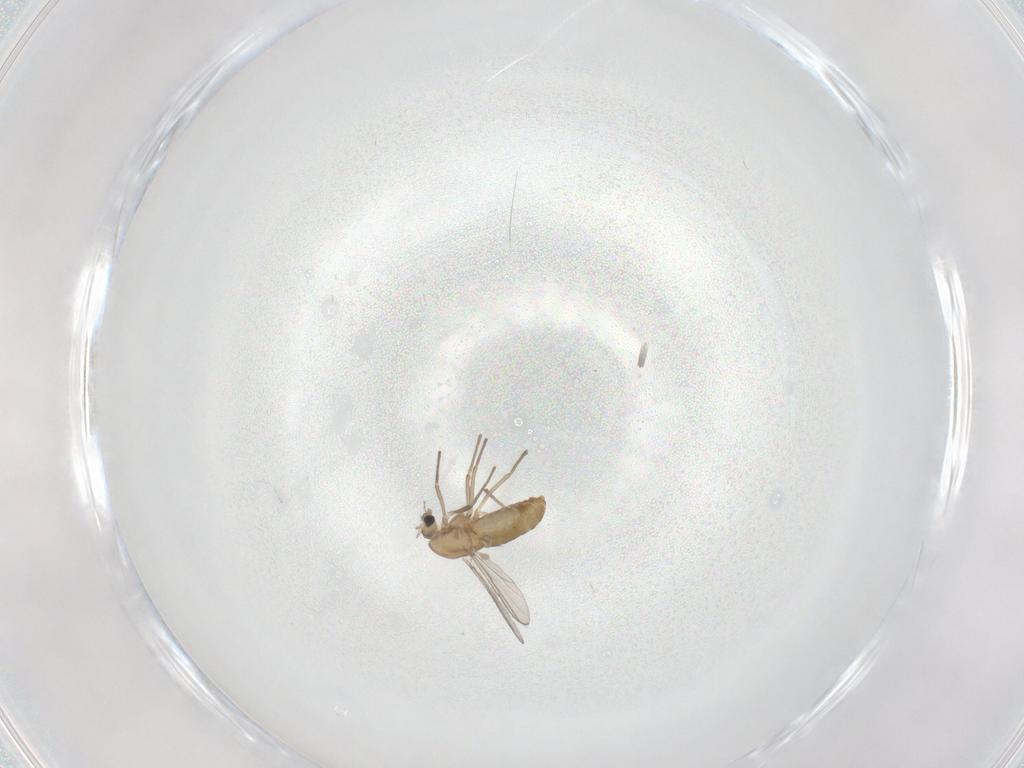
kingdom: Animalia
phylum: Arthropoda
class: Insecta
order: Diptera
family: Chironomidae
